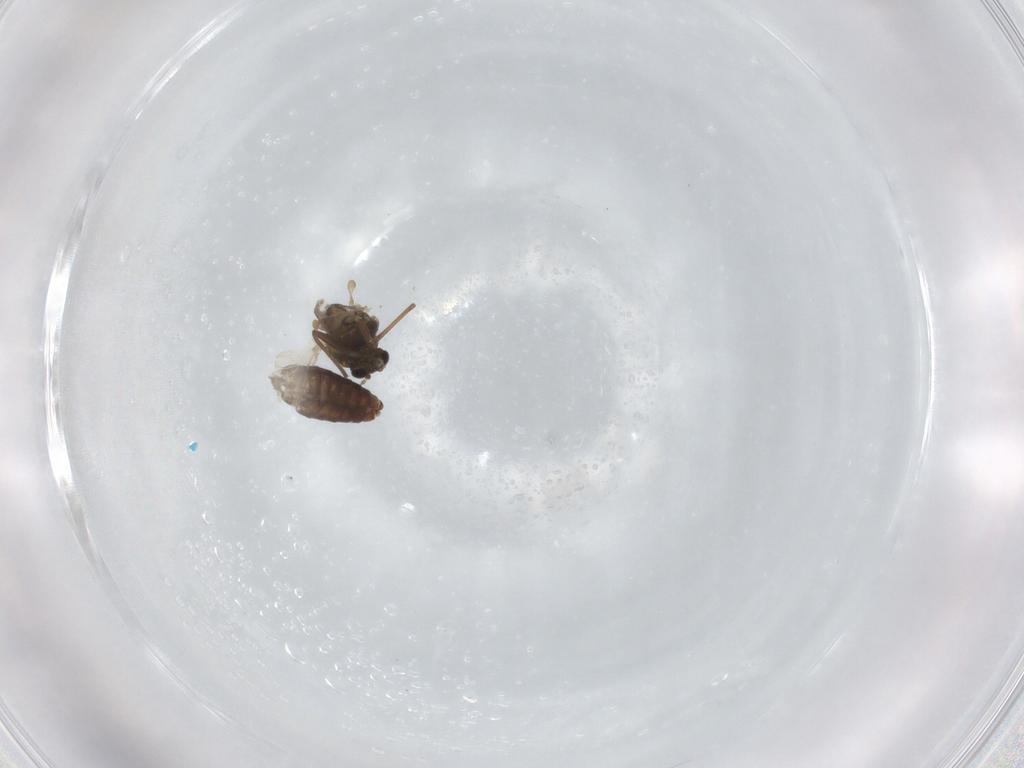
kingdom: Animalia
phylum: Arthropoda
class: Insecta
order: Diptera
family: Chironomidae
